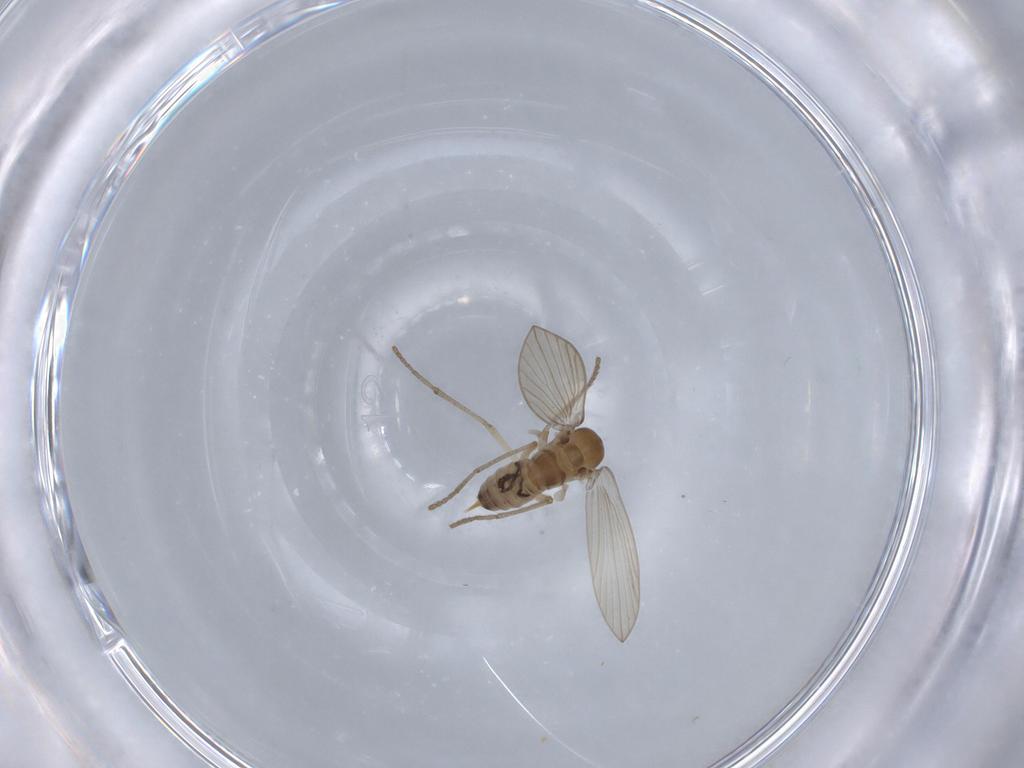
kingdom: Animalia
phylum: Arthropoda
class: Insecta
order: Diptera
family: Psychodidae
